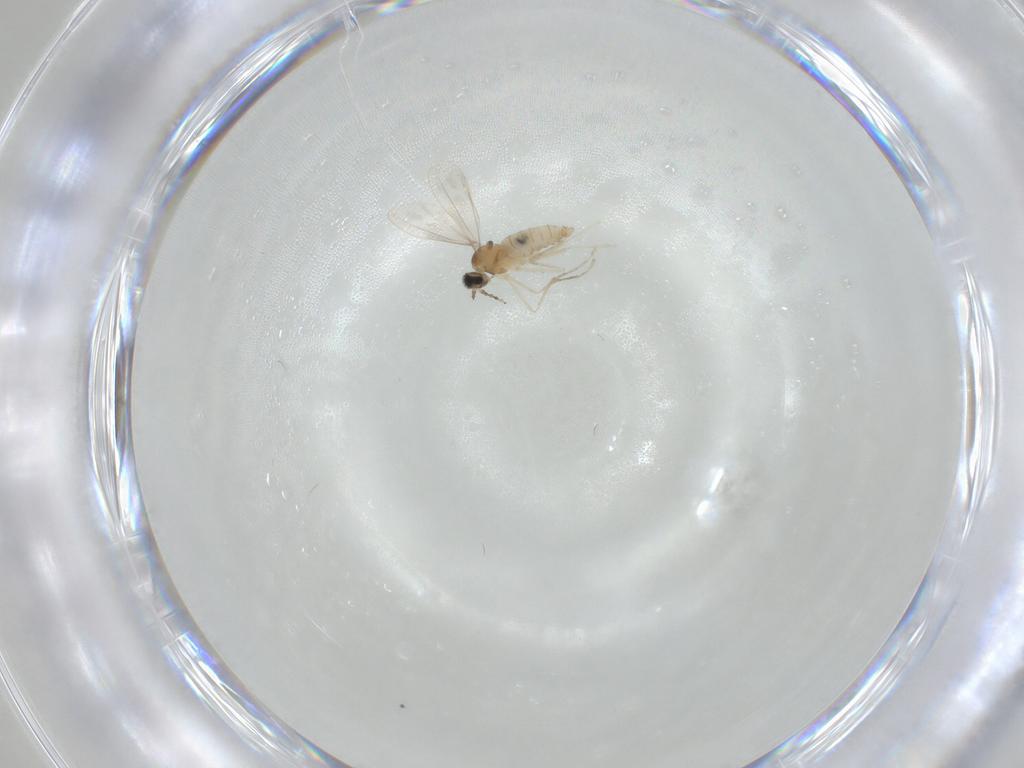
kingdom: Animalia
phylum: Arthropoda
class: Insecta
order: Diptera
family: Cecidomyiidae
